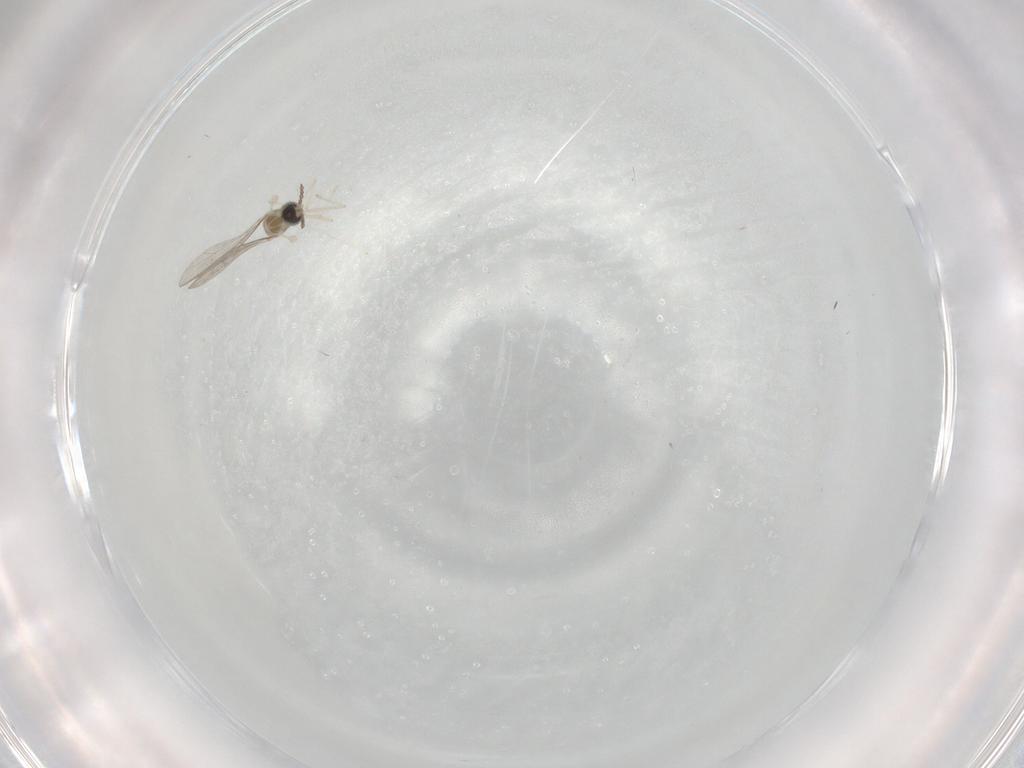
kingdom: Animalia
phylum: Arthropoda
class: Insecta
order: Diptera
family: Cecidomyiidae
